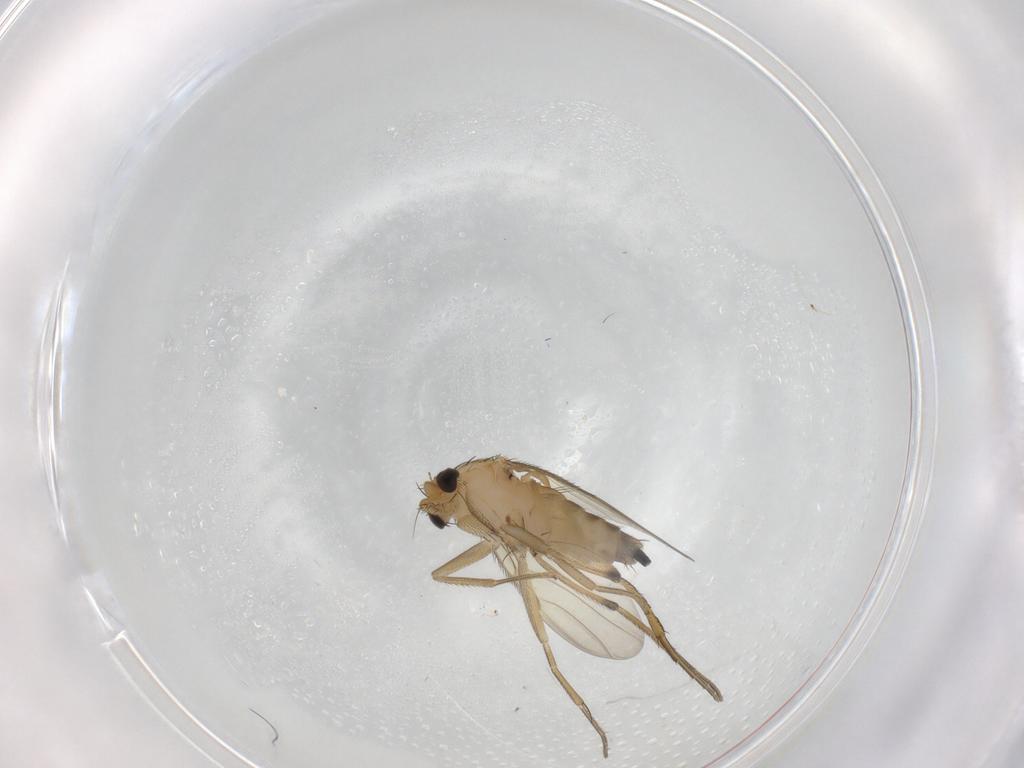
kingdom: Animalia
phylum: Arthropoda
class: Insecta
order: Diptera
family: Phoridae
